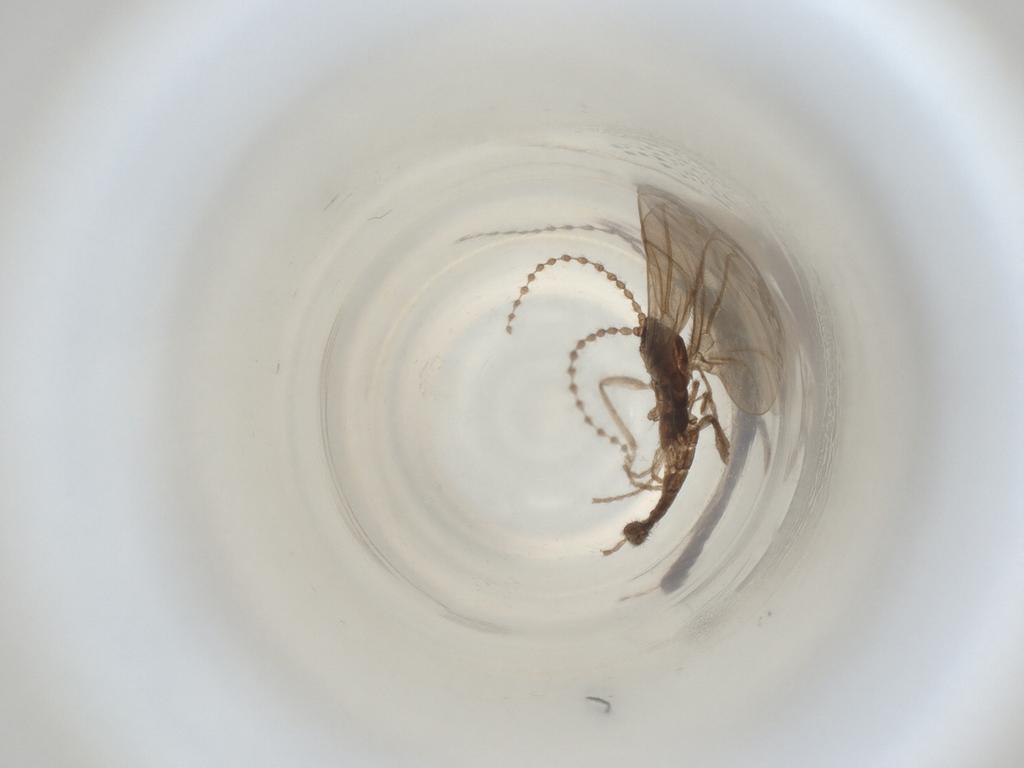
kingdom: Animalia
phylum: Arthropoda
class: Insecta
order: Diptera
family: Cecidomyiidae
